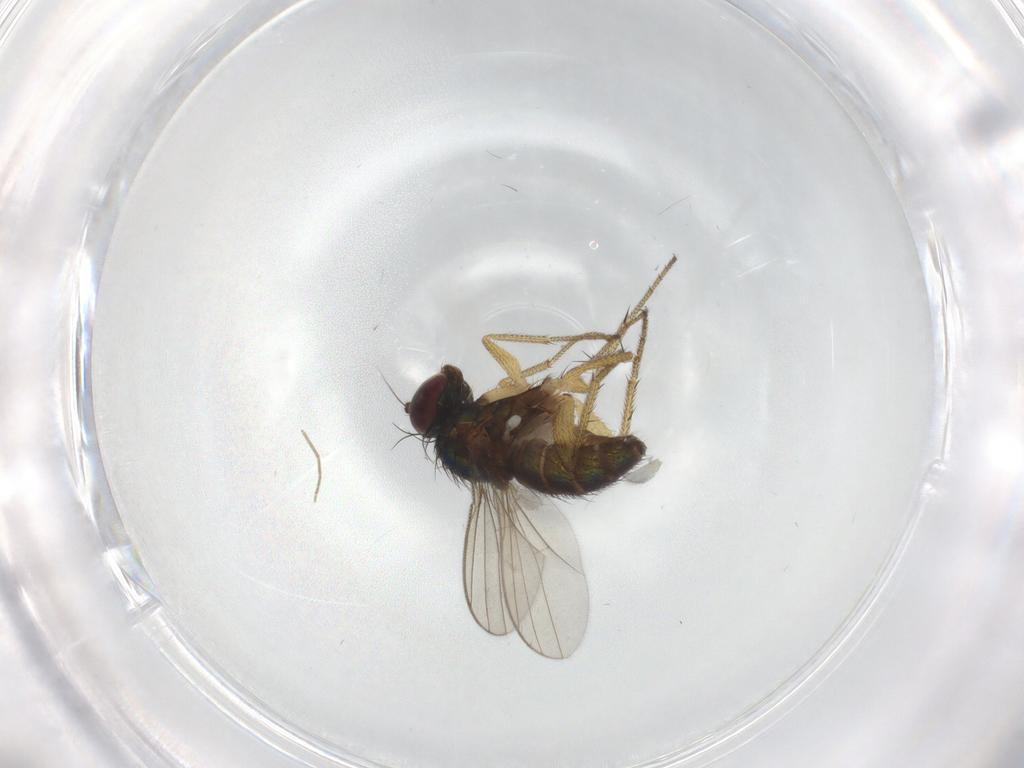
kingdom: Animalia
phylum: Arthropoda
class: Insecta
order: Diptera
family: Dolichopodidae
